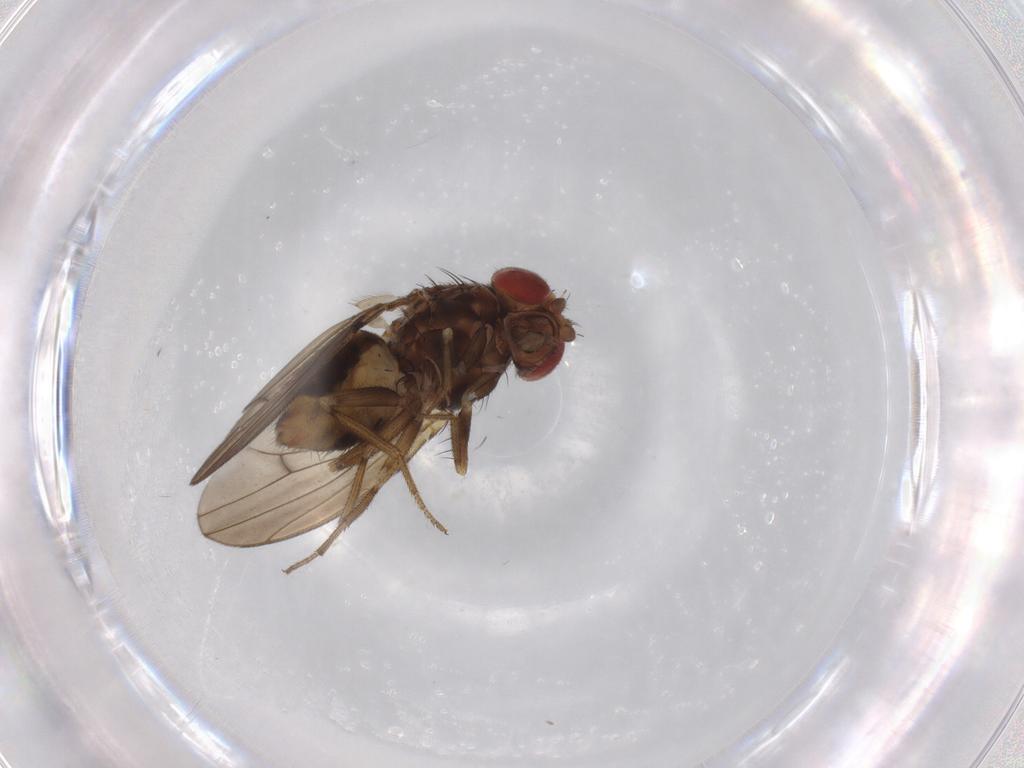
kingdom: Animalia
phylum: Arthropoda
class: Insecta
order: Diptera
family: Drosophilidae
